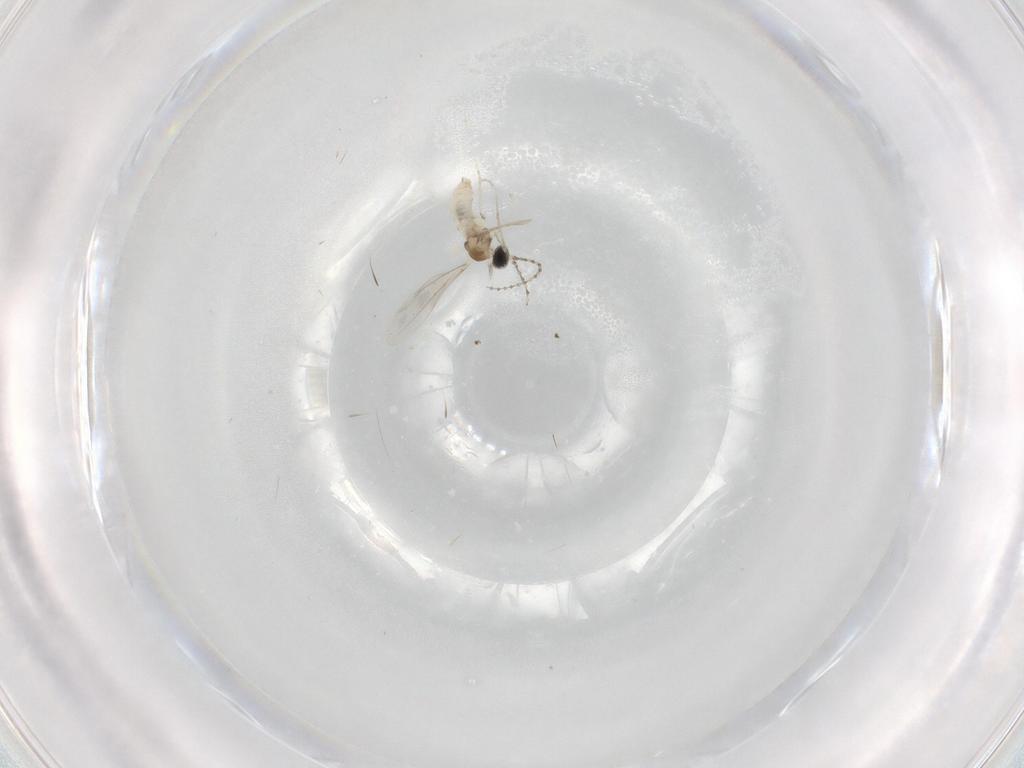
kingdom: Animalia
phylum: Arthropoda
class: Insecta
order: Diptera
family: Cecidomyiidae
